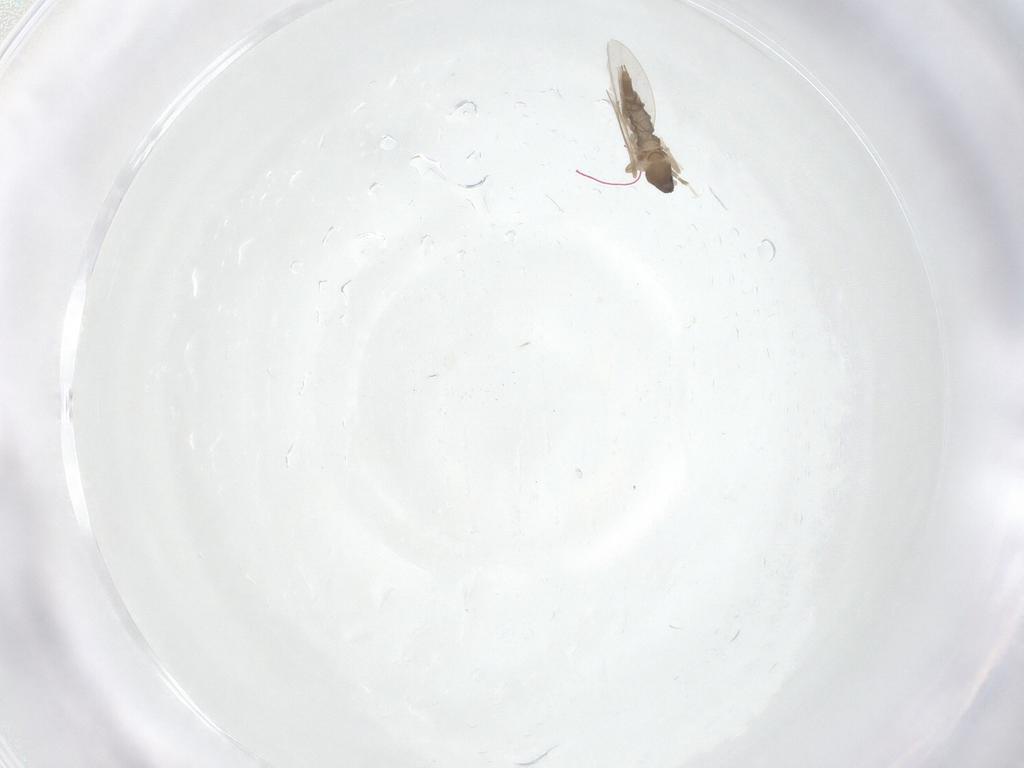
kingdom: Animalia
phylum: Arthropoda
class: Insecta
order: Diptera
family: Cecidomyiidae
